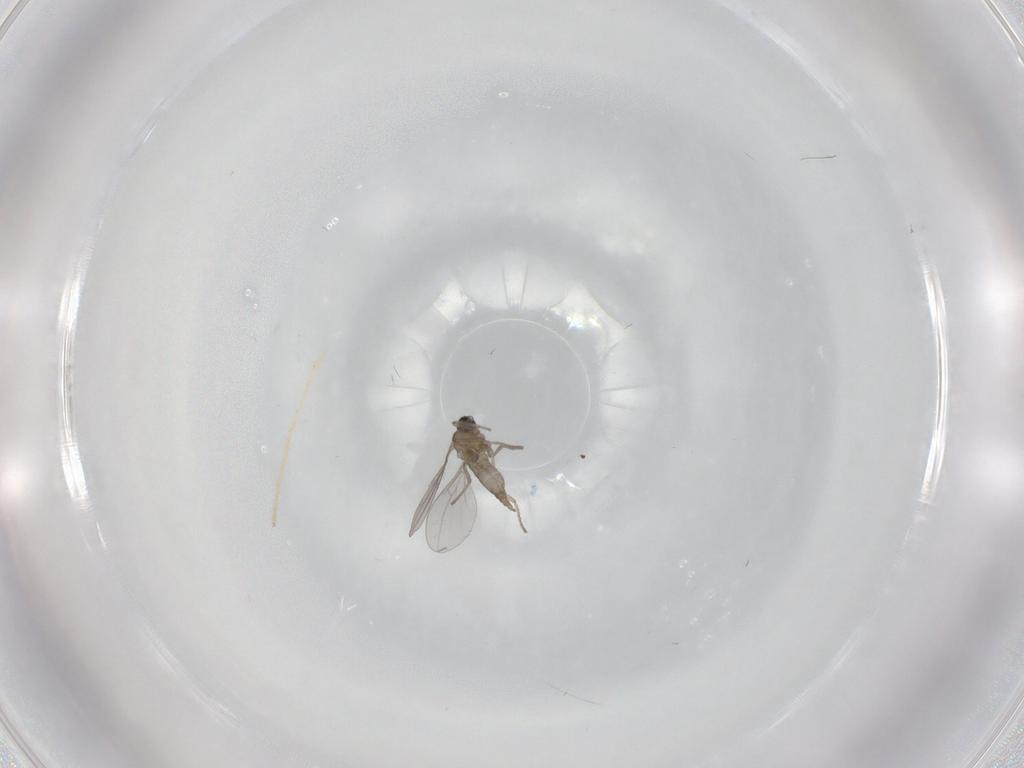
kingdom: Animalia
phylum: Arthropoda
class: Insecta
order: Diptera
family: Cecidomyiidae
